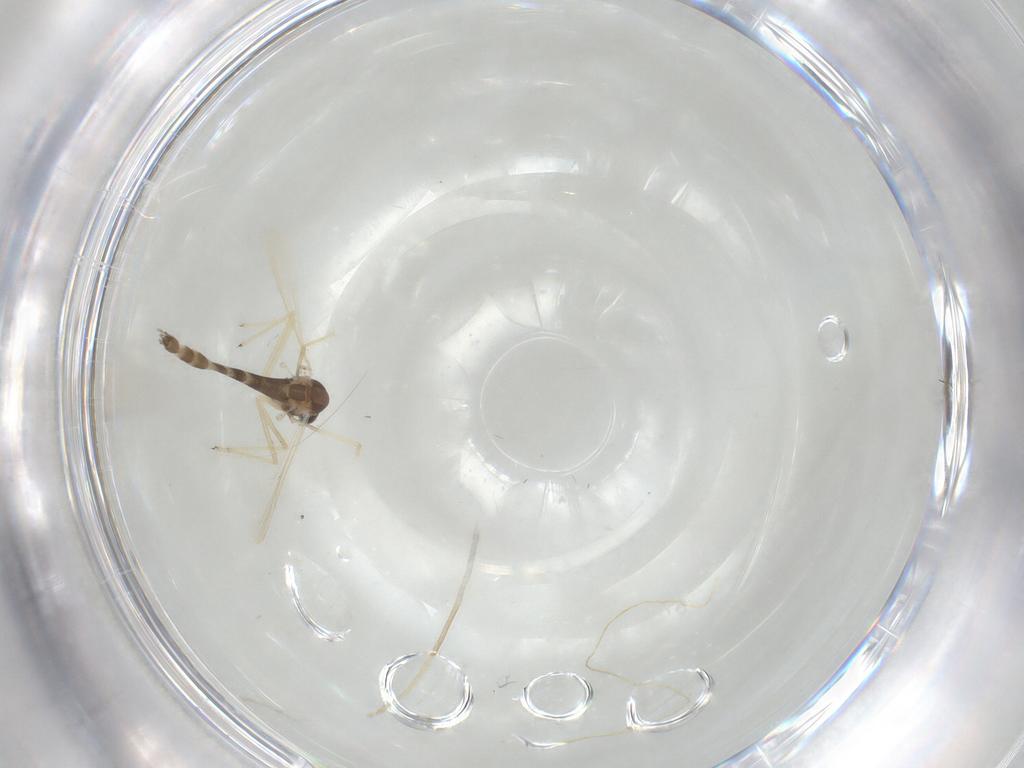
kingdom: Animalia
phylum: Arthropoda
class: Insecta
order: Diptera
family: Chironomidae
